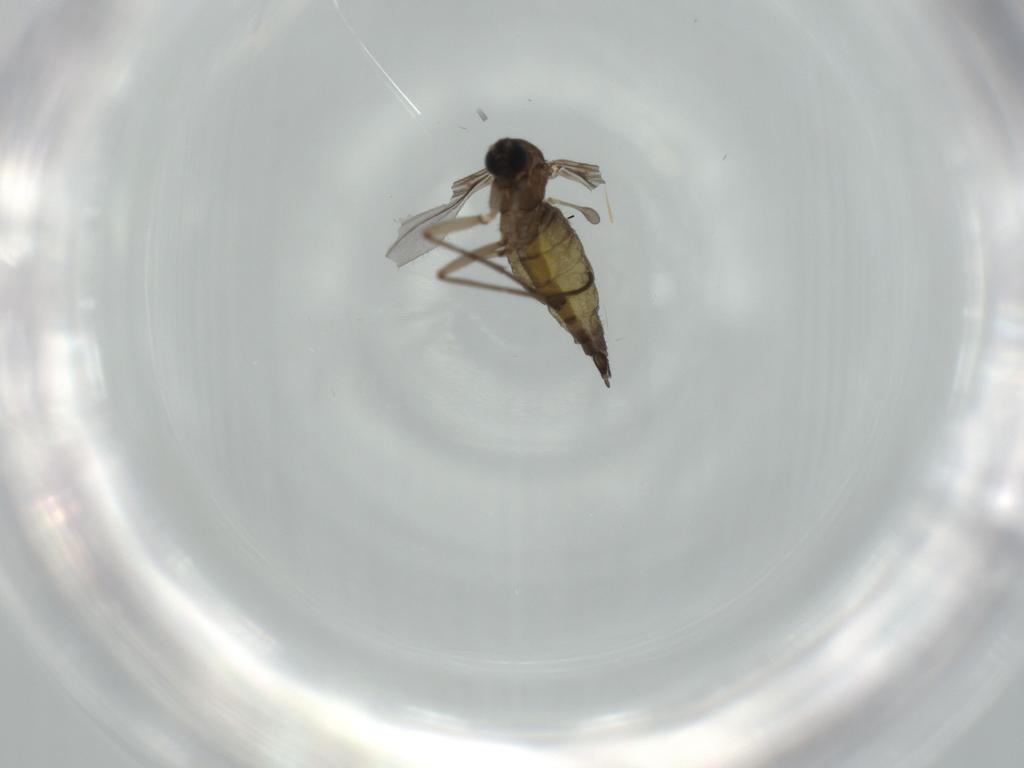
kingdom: Animalia
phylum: Arthropoda
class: Insecta
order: Diptera
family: Sciaridae
